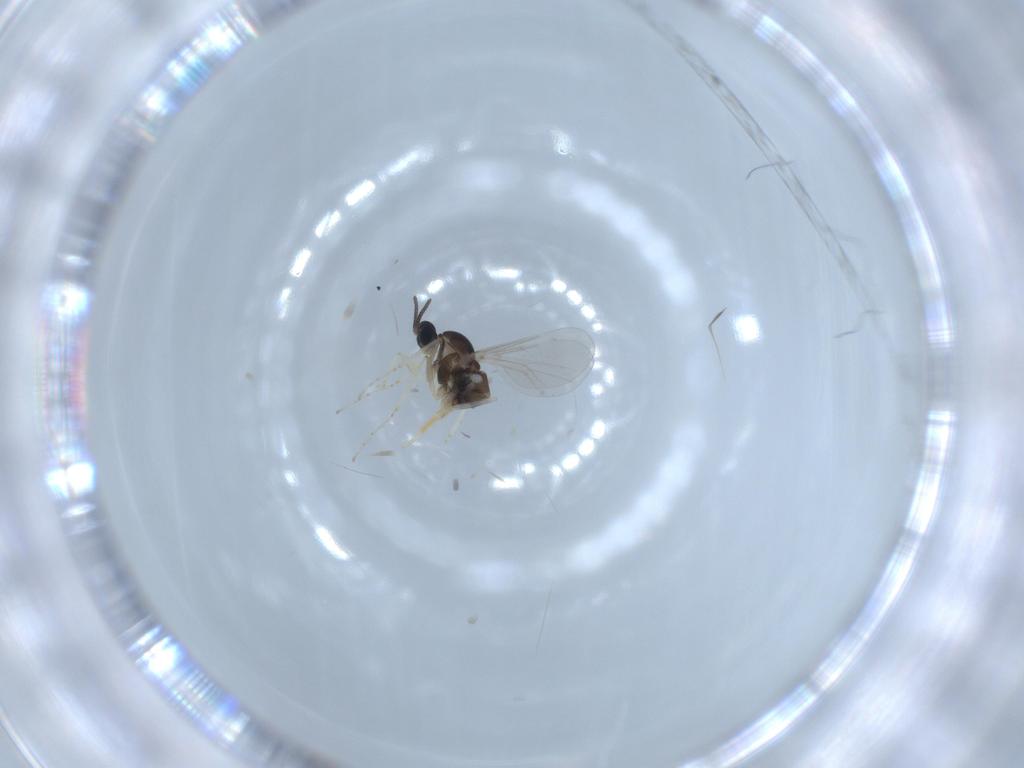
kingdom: Animalia
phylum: Arthropoda
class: Insecta
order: Diptera
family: Cecidomyiidae
